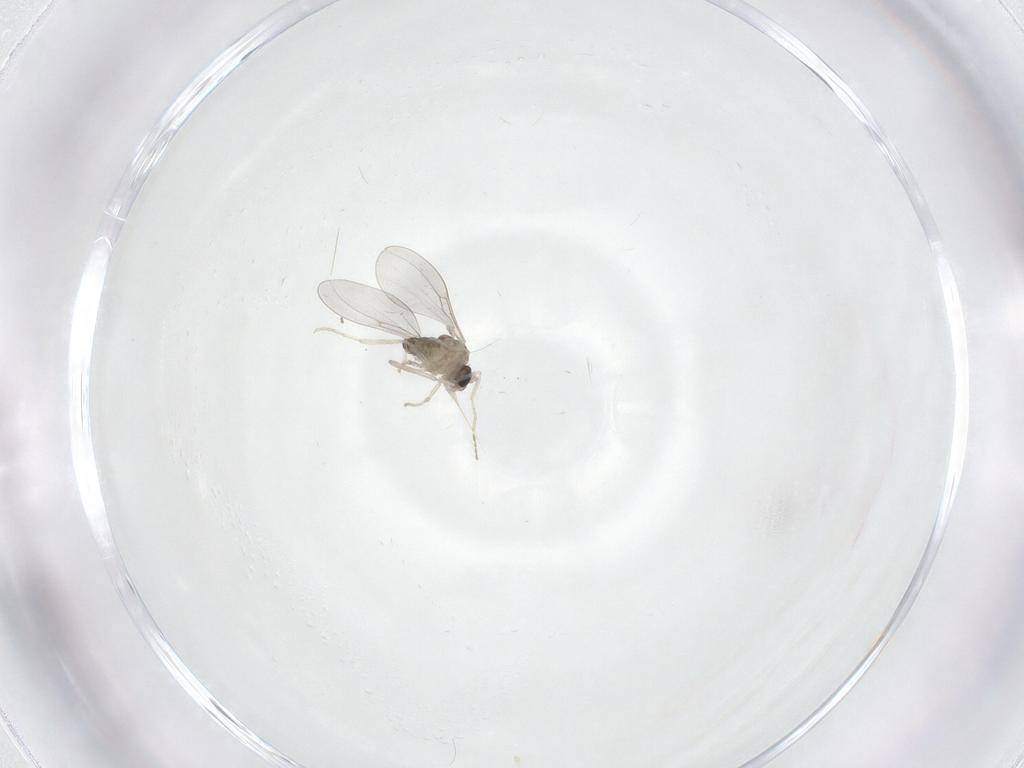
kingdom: Animalia
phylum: Arthropoda
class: Insecta
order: Diptera
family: Cecidomyiidae
